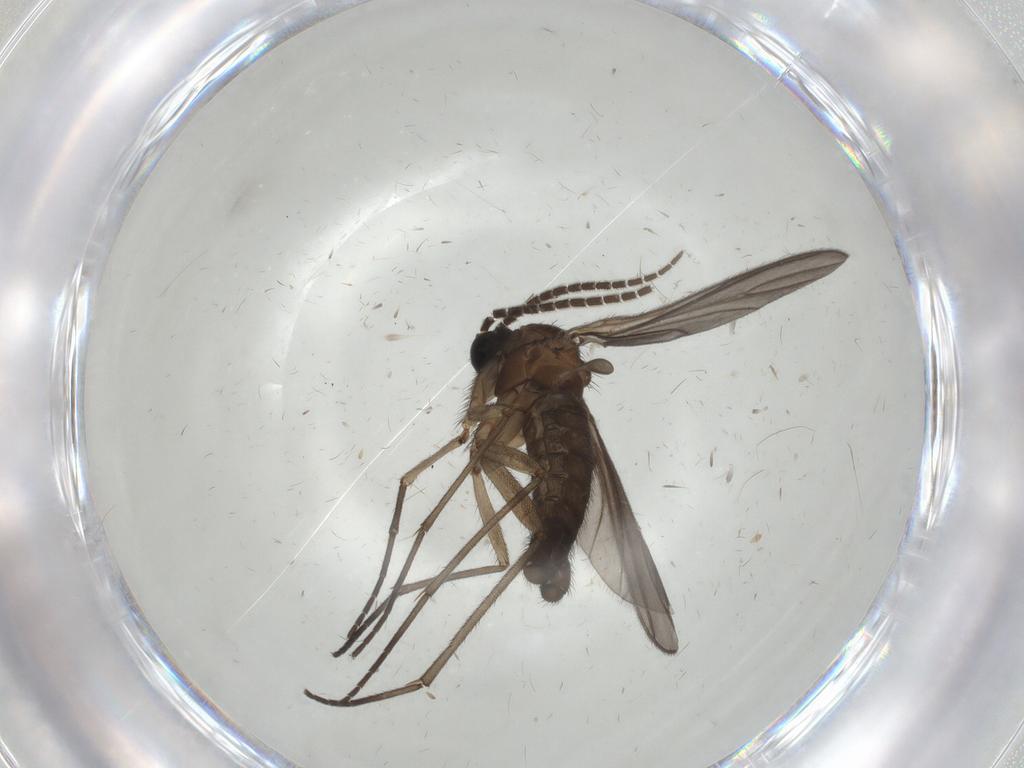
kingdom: Animalia
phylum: Arthropoda
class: Insecta
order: Diptera
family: Sciaridae
